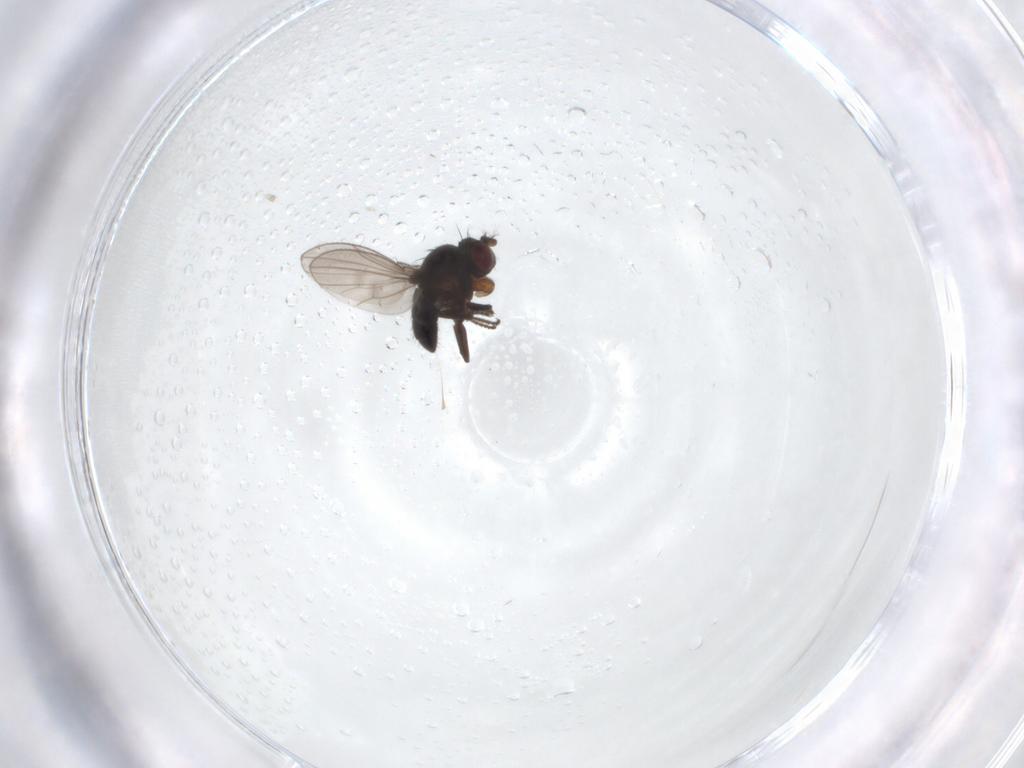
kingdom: Animalia
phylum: Arthropoda
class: Insecta
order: Diptera
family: Ephydridae
